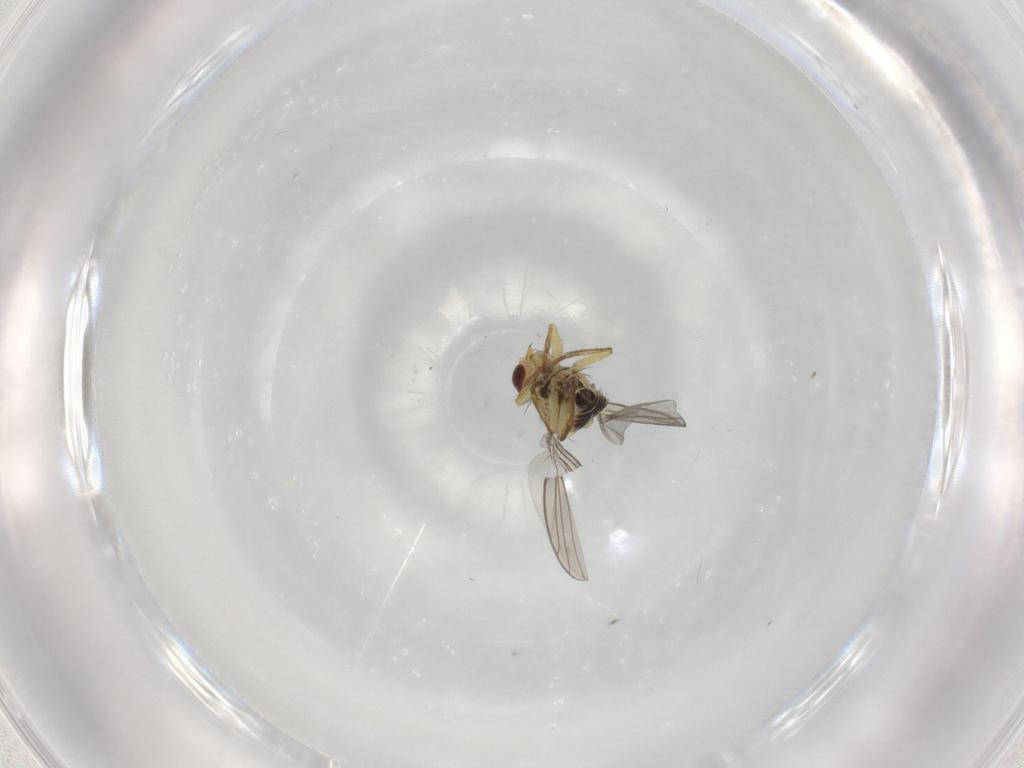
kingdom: Animalia
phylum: Arthropoda
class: Insecta
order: Diptera
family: Agromyzidae
